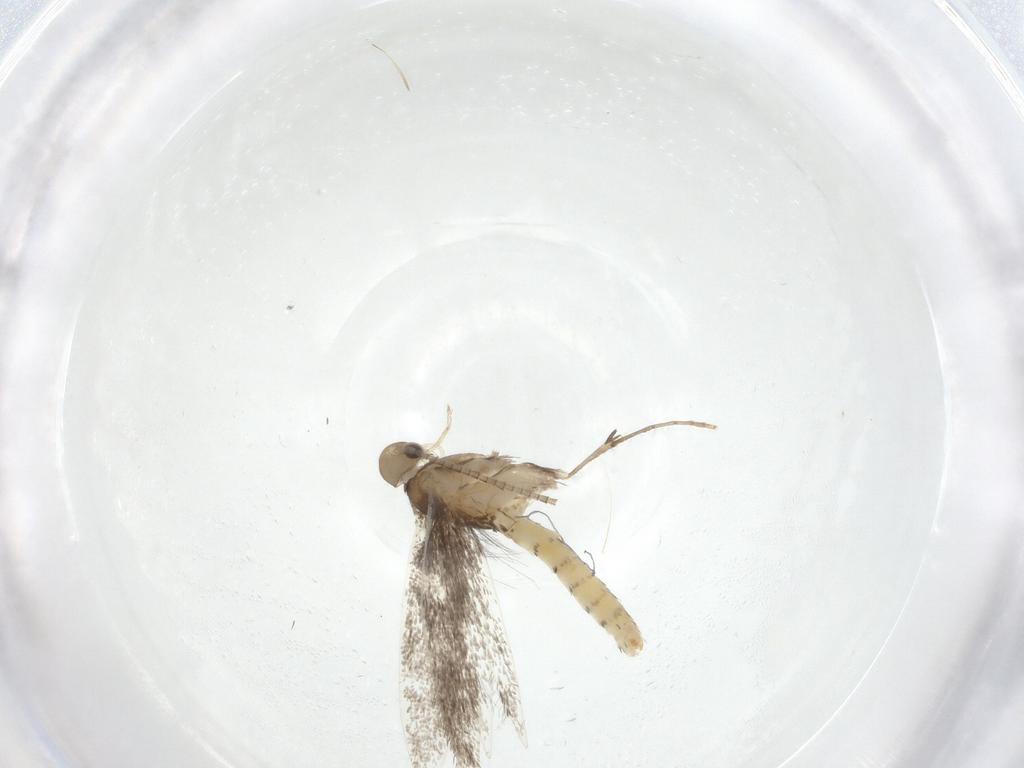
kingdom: Animalia
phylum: Arthropoda
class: Insecta
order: Lepidoptera
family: Gracillariidae
